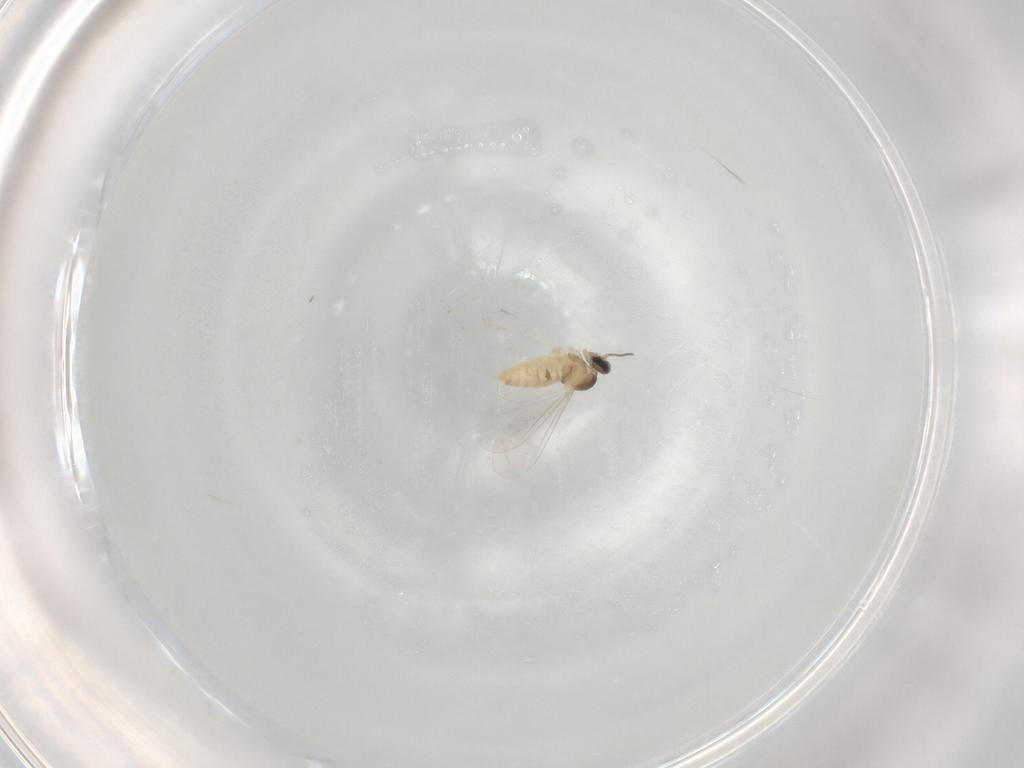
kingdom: Animalia
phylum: Arthropoda
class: Insecta
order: Diptera
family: Cecidomyiidae
